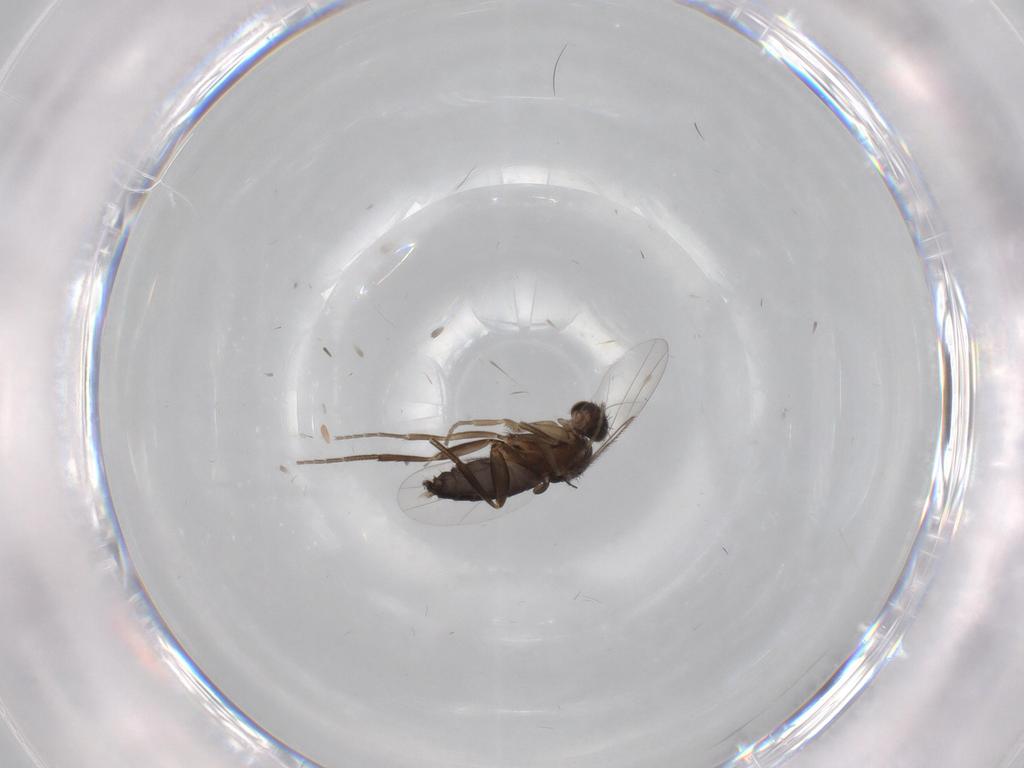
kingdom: Animalia
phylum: Arthropoda
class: Insecta
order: Diptera
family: Phoridae
